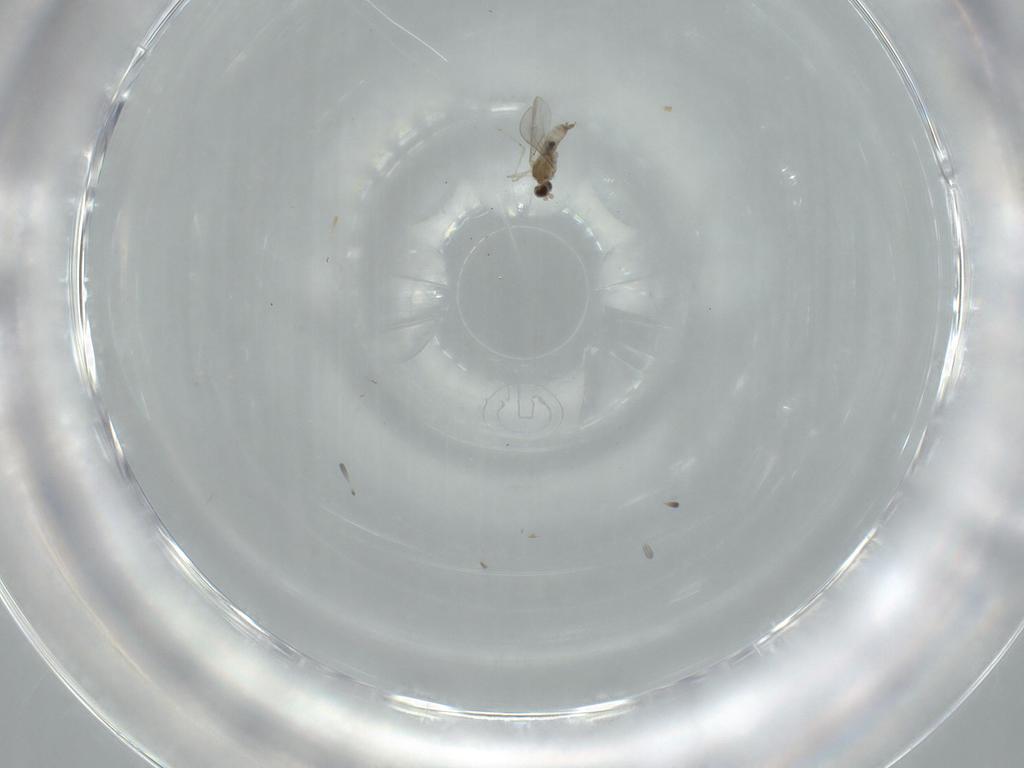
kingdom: Animalia
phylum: Arthropoda
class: Insecta
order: Diptera
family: Cecidomyiidae
